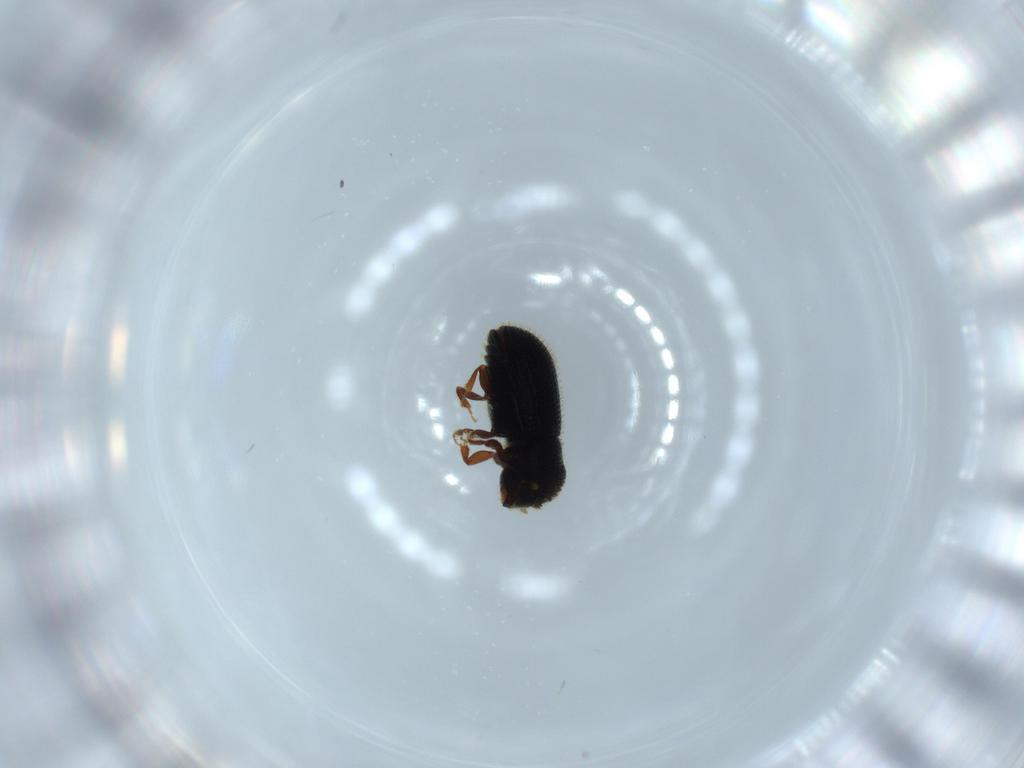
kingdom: Animalia
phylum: Arthropoda
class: Insecta
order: Coleoptera
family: Curculionidae
